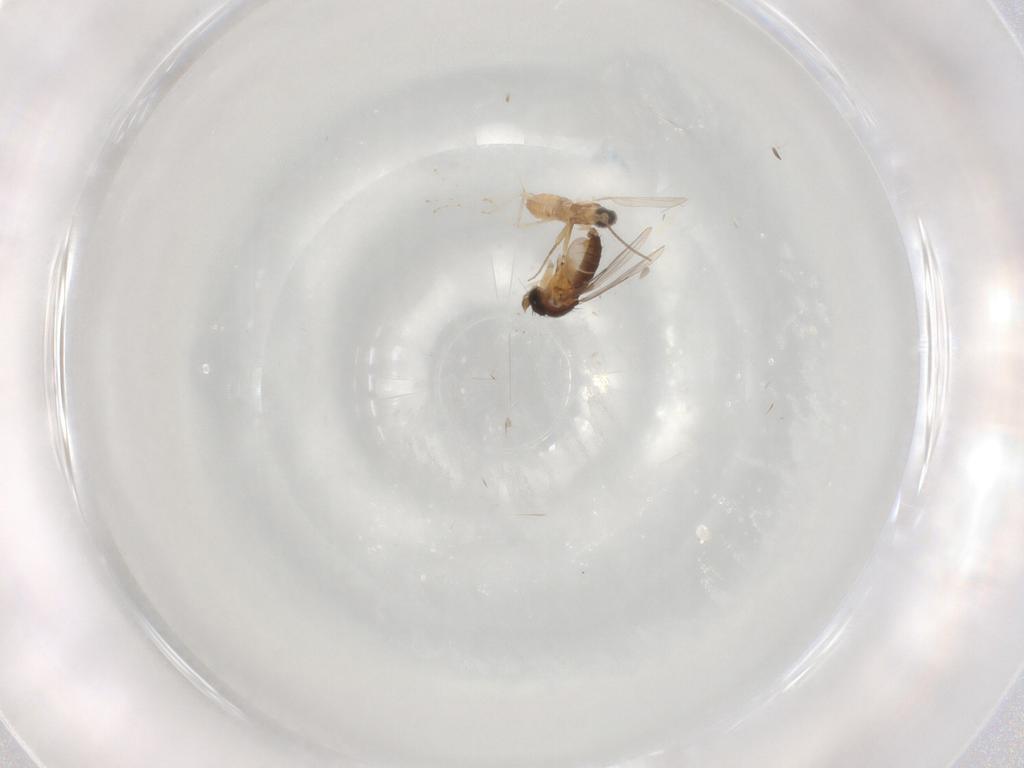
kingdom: Animalia
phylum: Arthropoda
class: Insecta
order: Diptera
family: Cecidomyiidae
